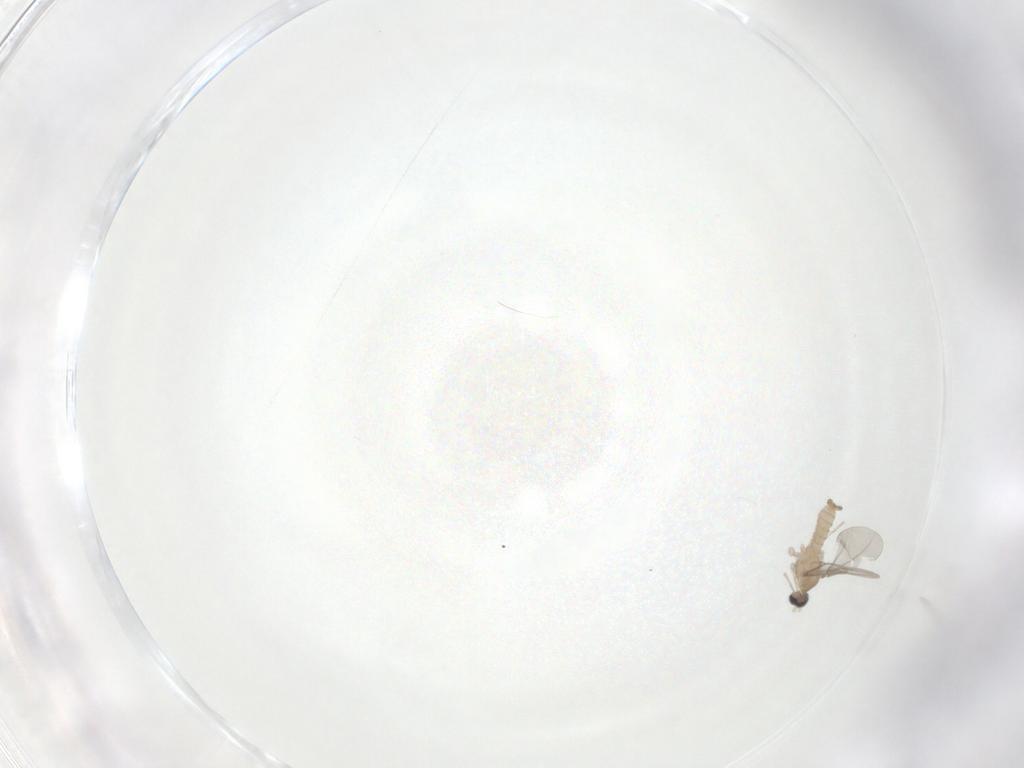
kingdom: Animalia
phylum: Arthropoda
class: Insecta
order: Diptera
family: Cecidomyiidae
